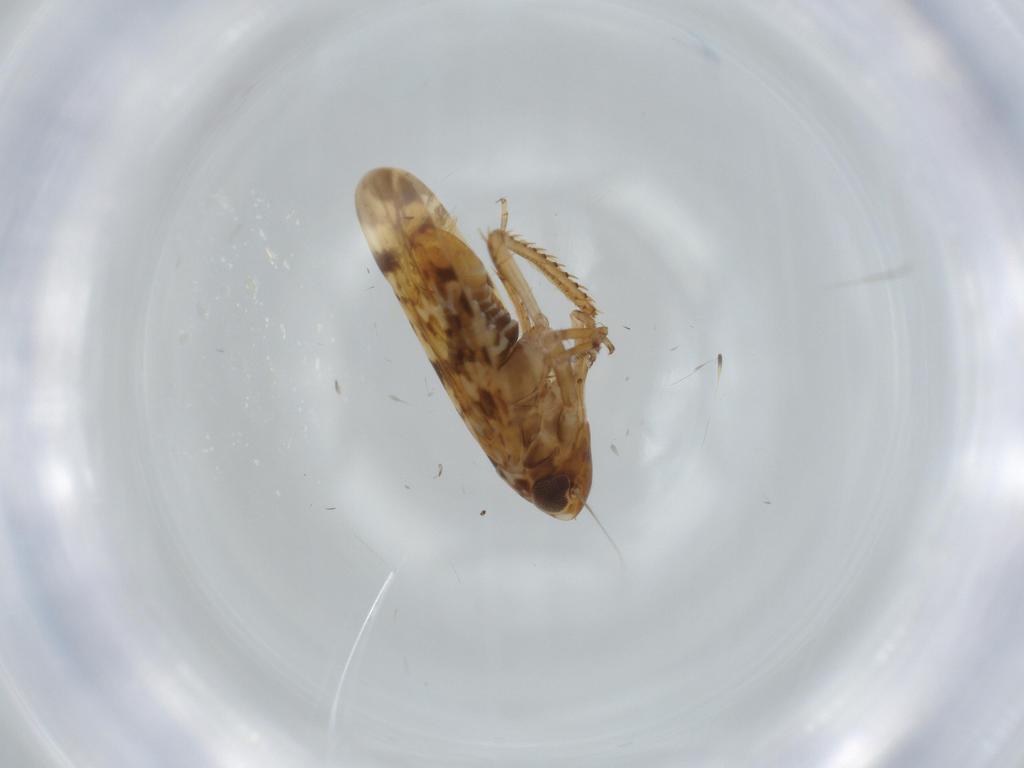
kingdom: Animalia
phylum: Arthropoda
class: Insecta
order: Hemiptera
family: Cicadellidae
